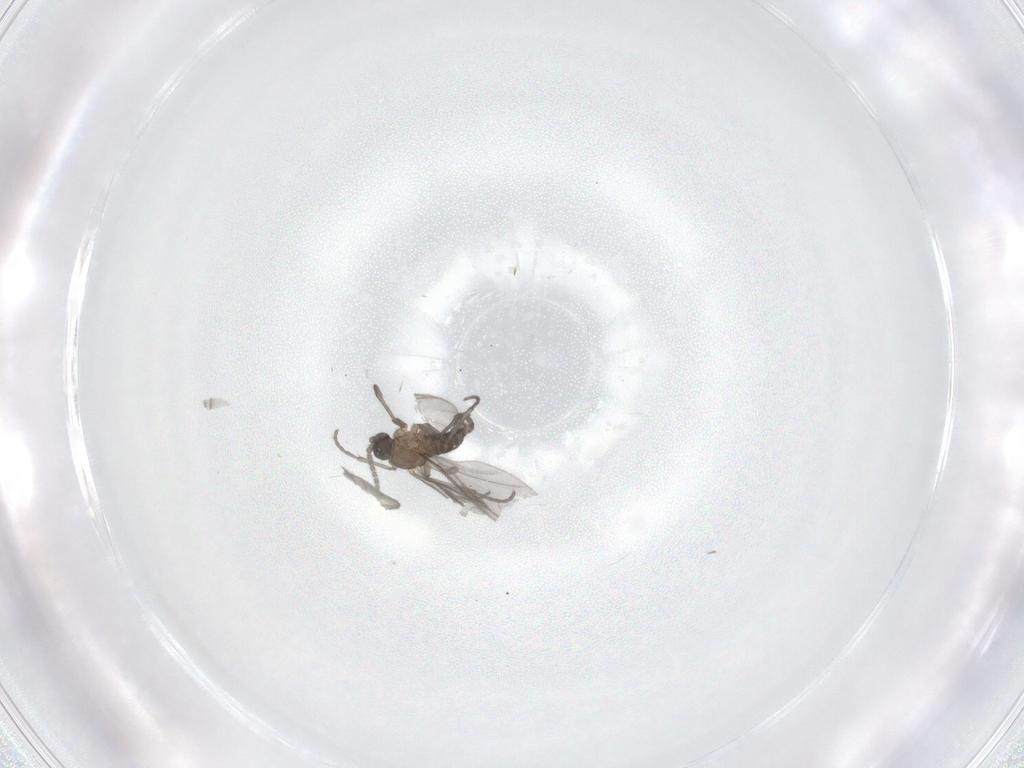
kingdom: Animalia
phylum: Arthropoda
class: Insecta
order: Diptera
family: Sciaridae
